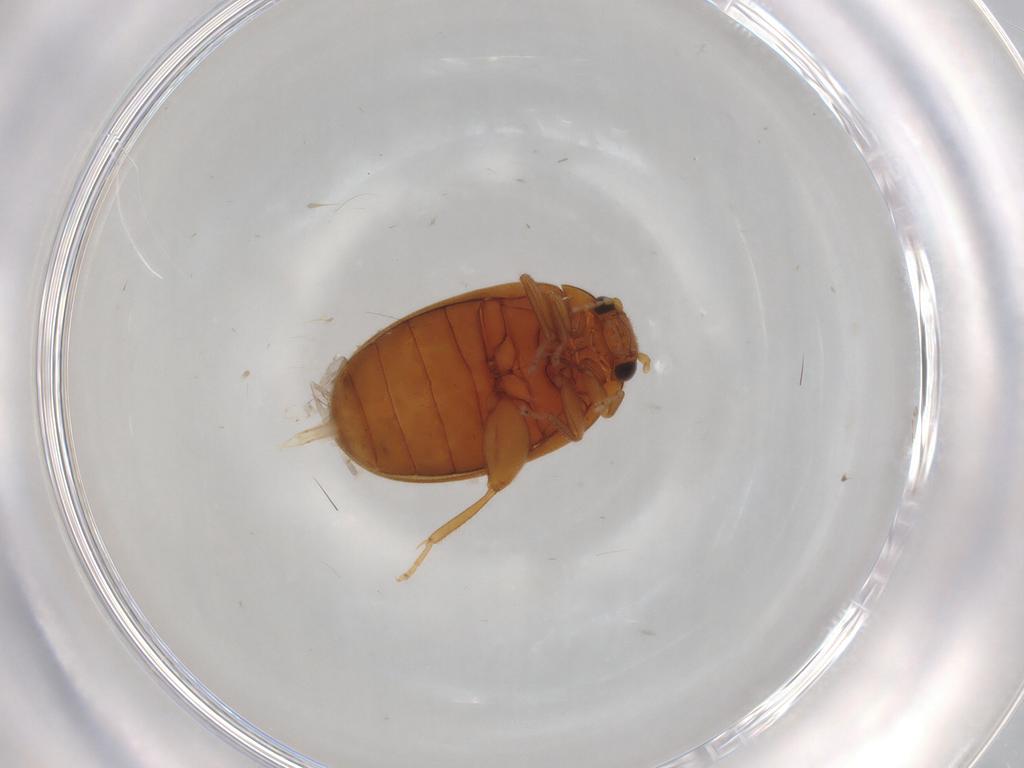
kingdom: Animalia
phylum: Arthropoda
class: Insecta
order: Coleoptera
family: Scirtidae
